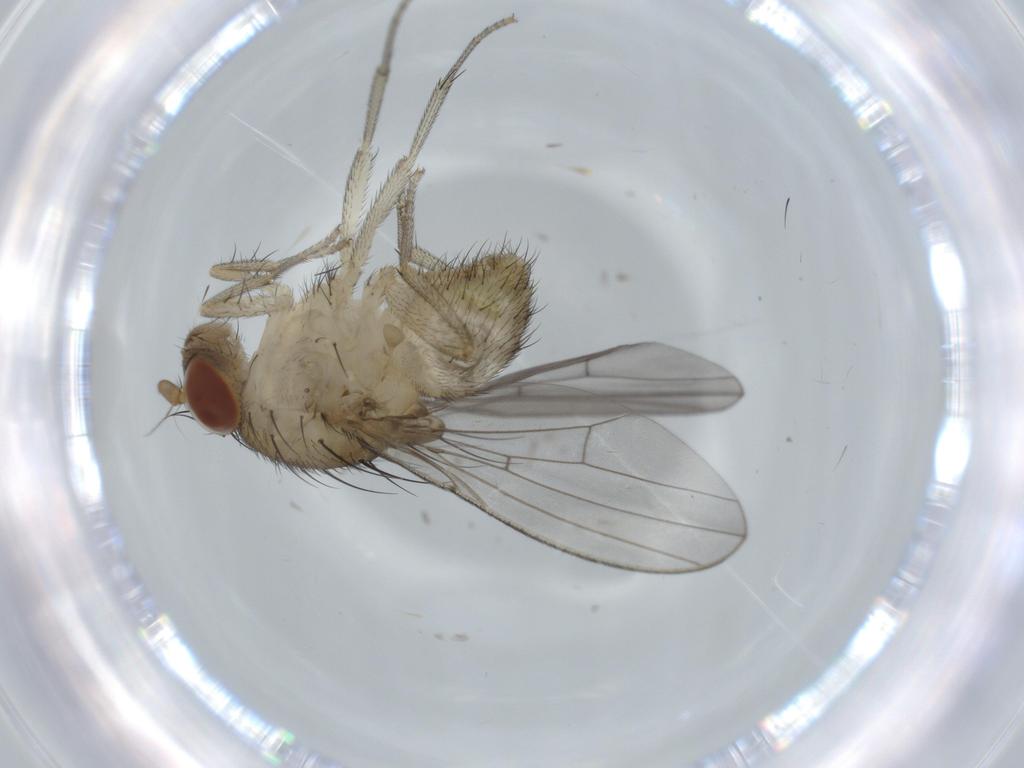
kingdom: Animalia
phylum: Arthropoda
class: Insecta
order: Diptera
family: Psychodidae
